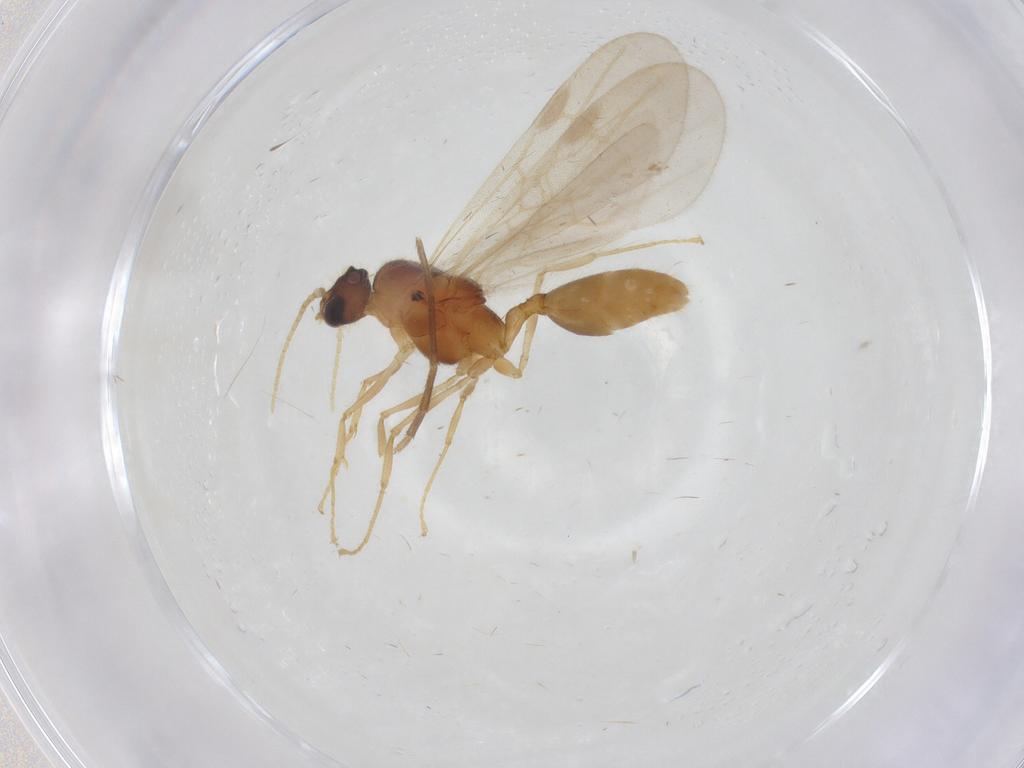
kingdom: Animalia
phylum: Arthropoda
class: Insecta
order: Hymenoptera
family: Formicidae
